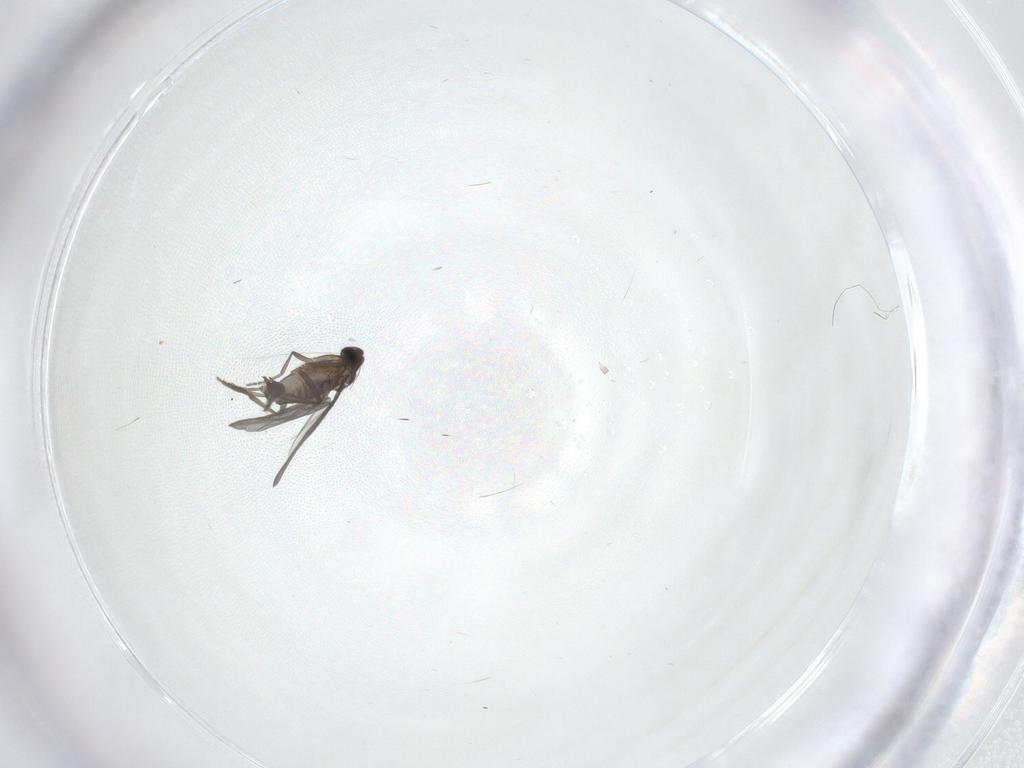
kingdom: Animalia
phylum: Arthropoda
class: Insecta
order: Diptera
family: Phoridae
